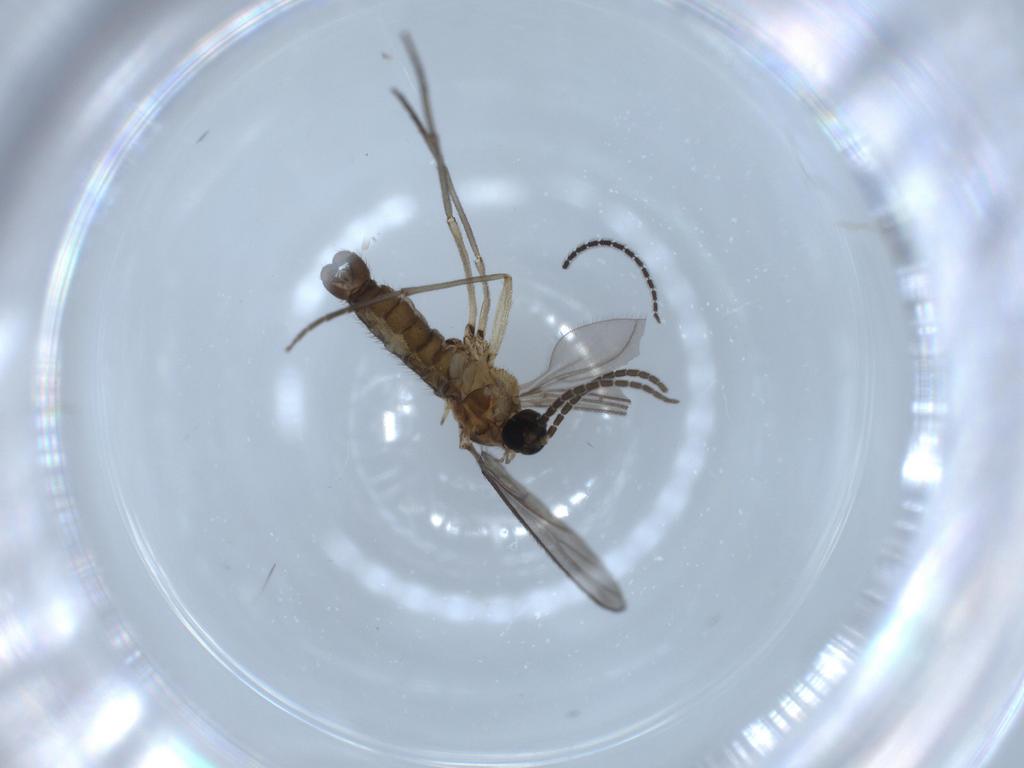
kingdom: Animalia
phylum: Arthropoda
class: Insecta
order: Diptera
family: Sciaridae
